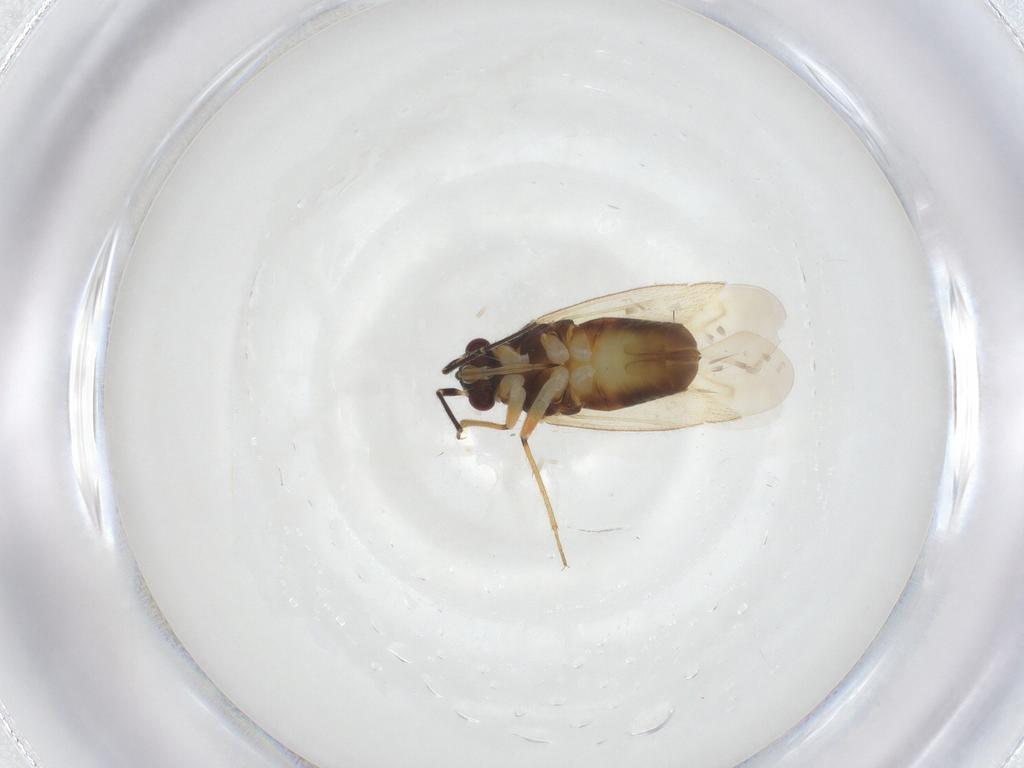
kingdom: Animalia
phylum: Arthropoda
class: Insecta
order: Hemiptera
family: Miridae
